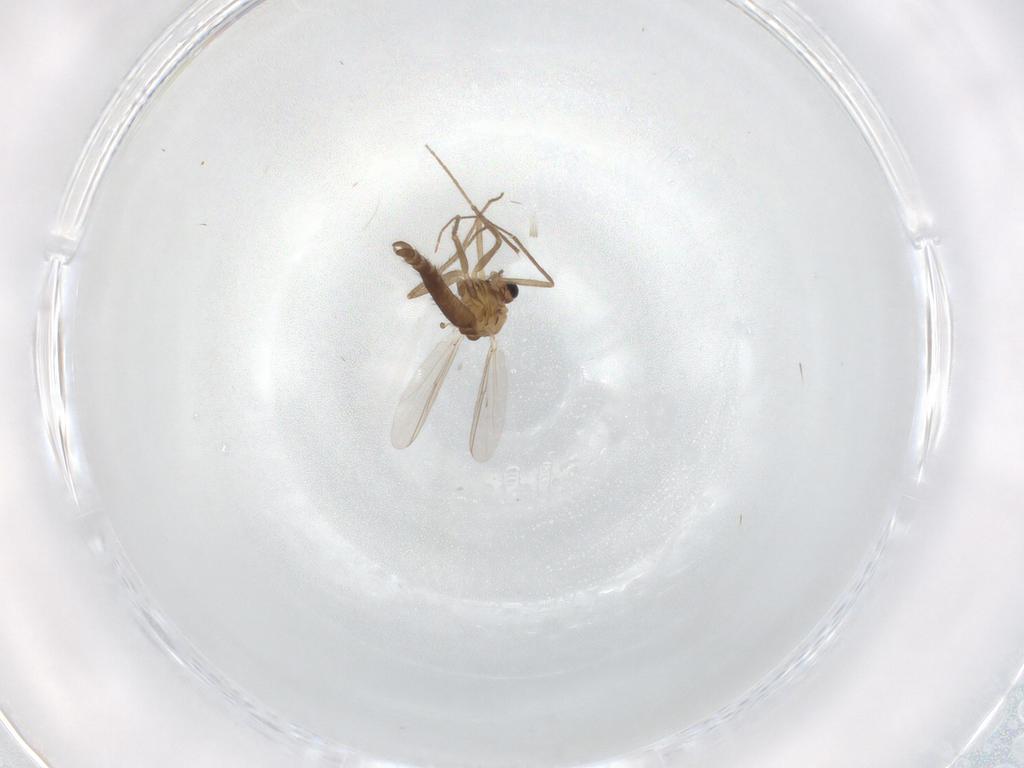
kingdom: Animalia
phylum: Arthropoda
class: Insecta
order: Diptera
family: Chironomidae
